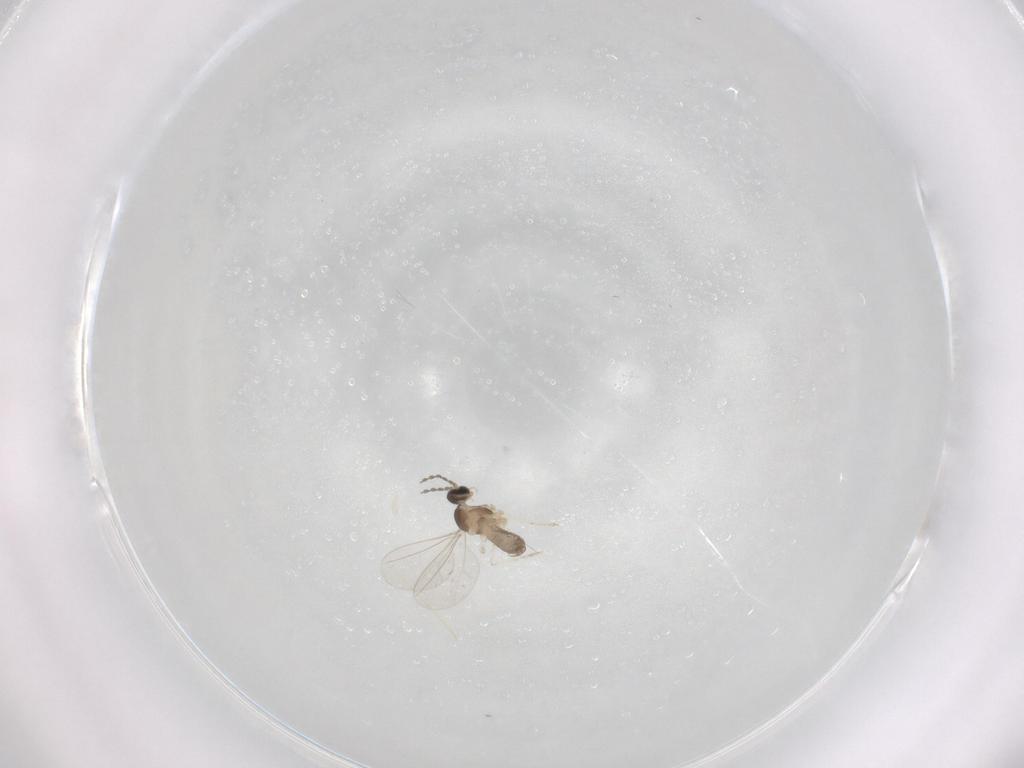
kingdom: Animalia
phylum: Arthropoda
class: Insecta
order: Diptera
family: Cecidomyiidae
